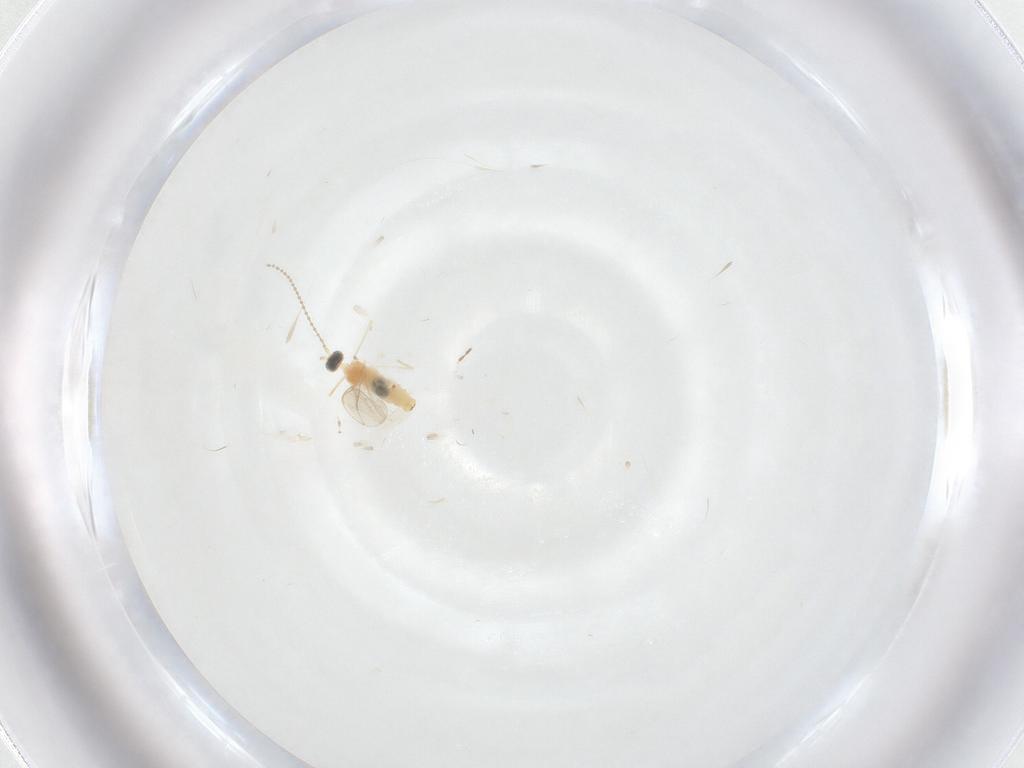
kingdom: Animalia
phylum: Arthropoda
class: Insecta
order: Diptera
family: Cecidomyiidae
